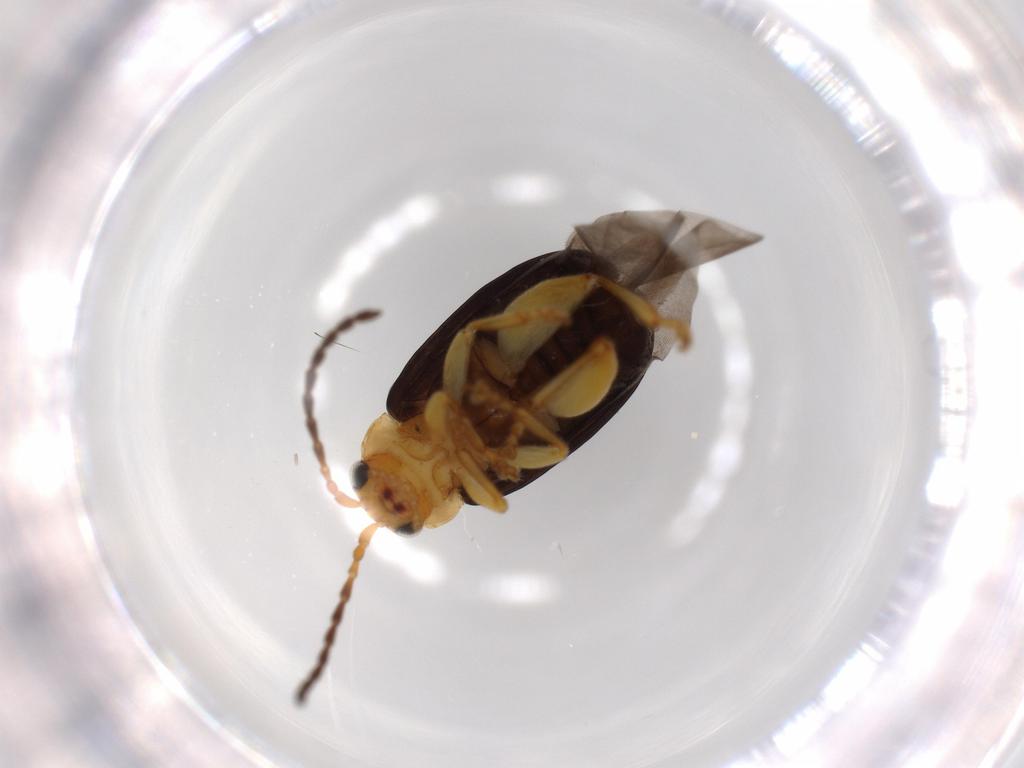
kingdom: Animalia
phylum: Arthropoda
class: Insecta
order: Coleoptera
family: Chrysomelidae
